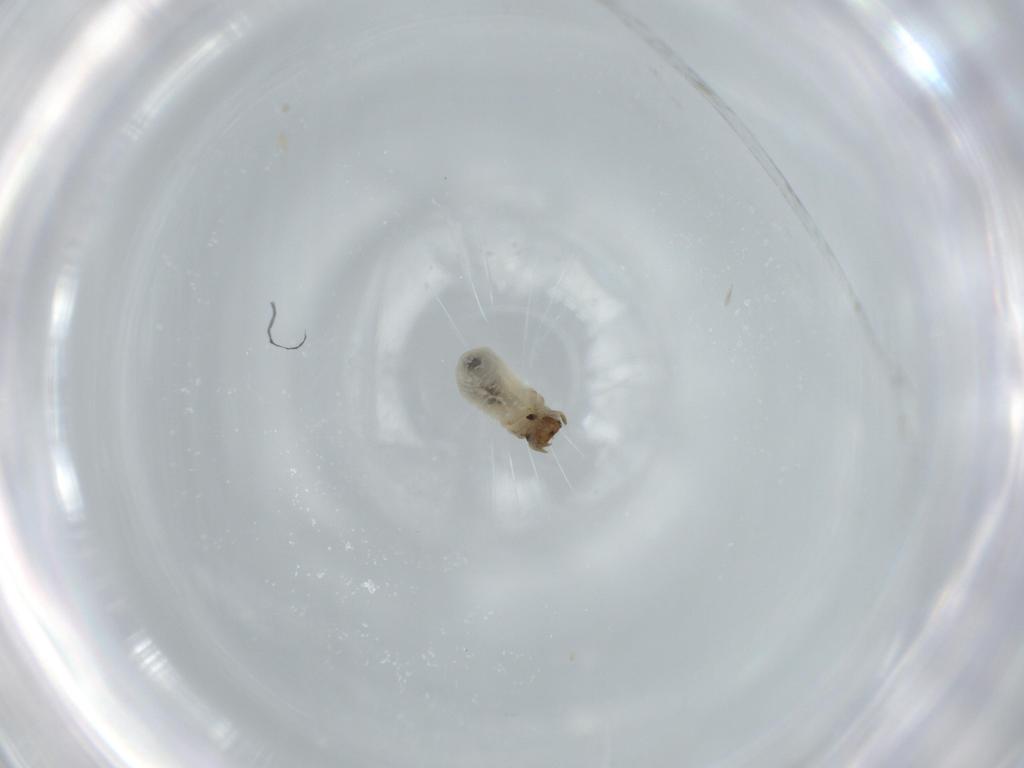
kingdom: Animalia
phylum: Arthropoda
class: Insecta
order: Coleoptera
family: Chrysomelidae
